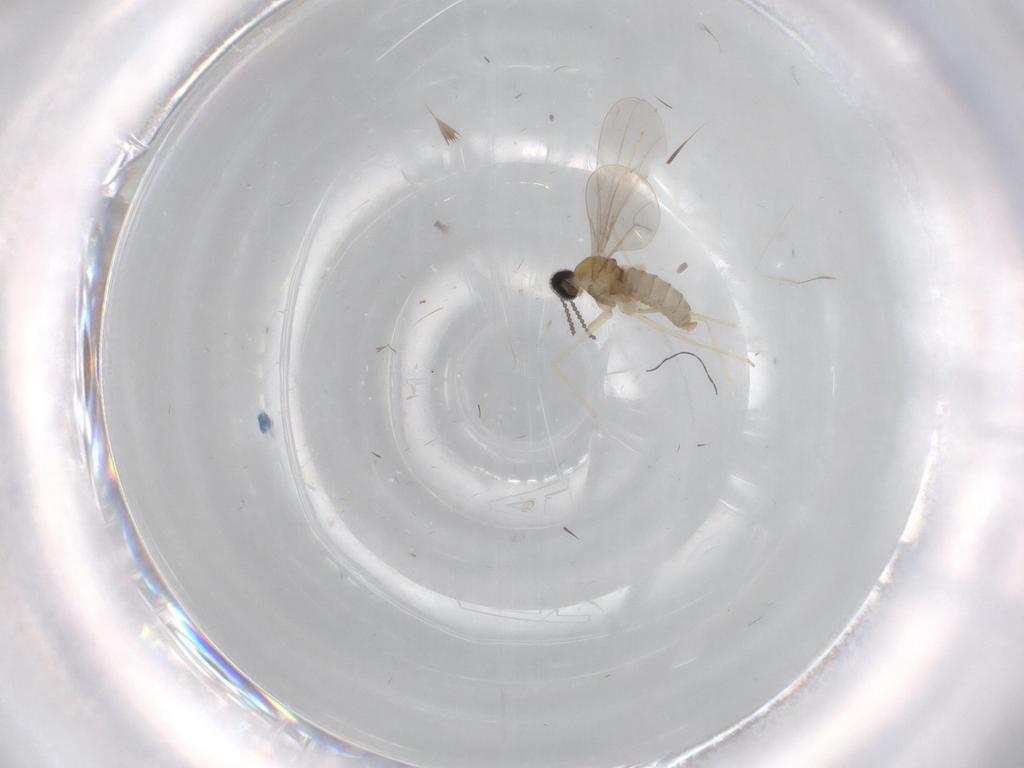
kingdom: Animalia
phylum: Arthropoda
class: Insecta
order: Diptera
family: Cecidomyiidae
